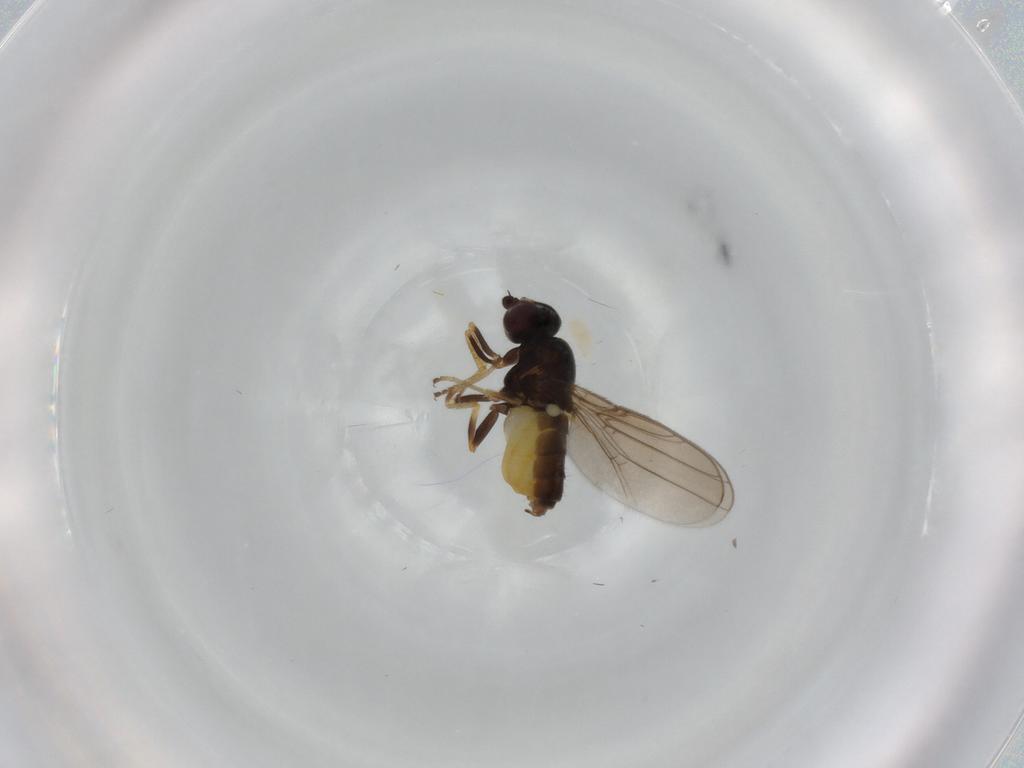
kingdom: Animalia
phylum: Arthropoda
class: Insecta
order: Diptera
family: Chloropidae
